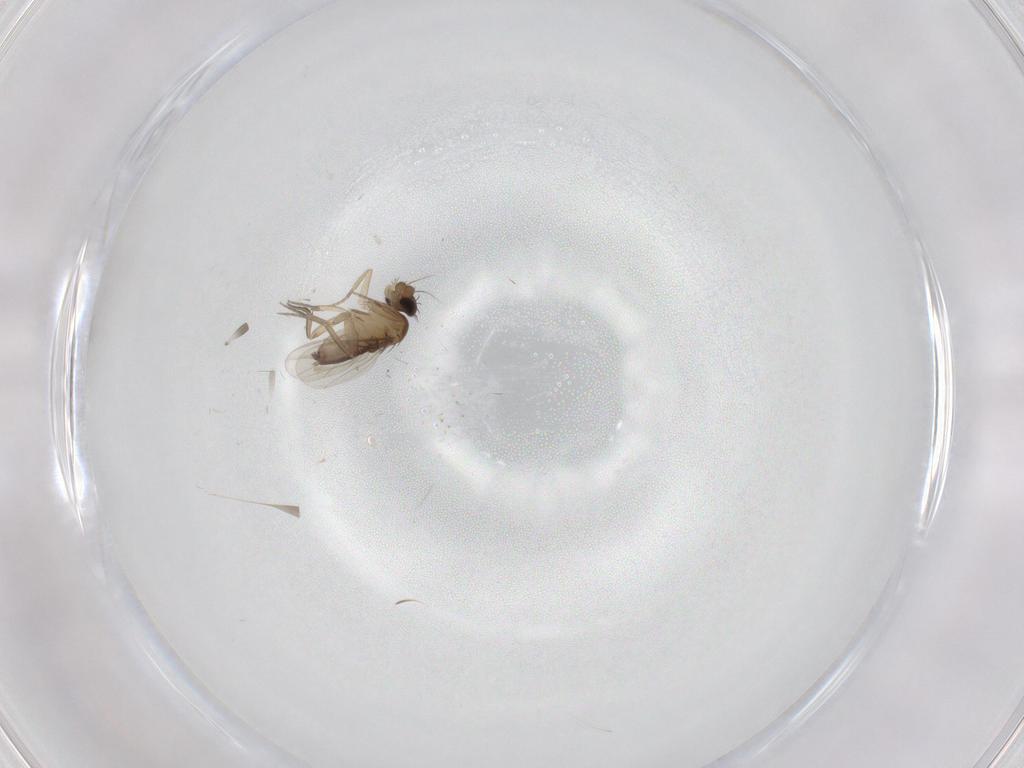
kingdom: Animalia
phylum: Arthropoda
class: Insecta
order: Diptera
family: Phoridae
